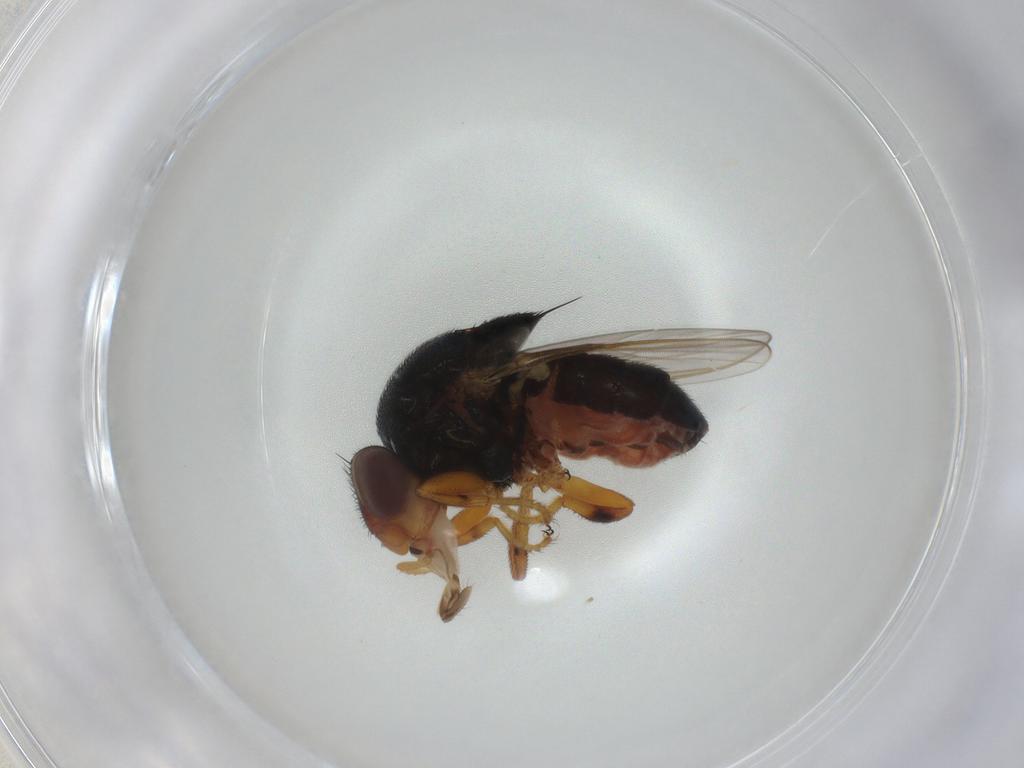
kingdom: Animalia
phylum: Arthropoda
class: Insecta
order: Diptera
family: Chloropidae
